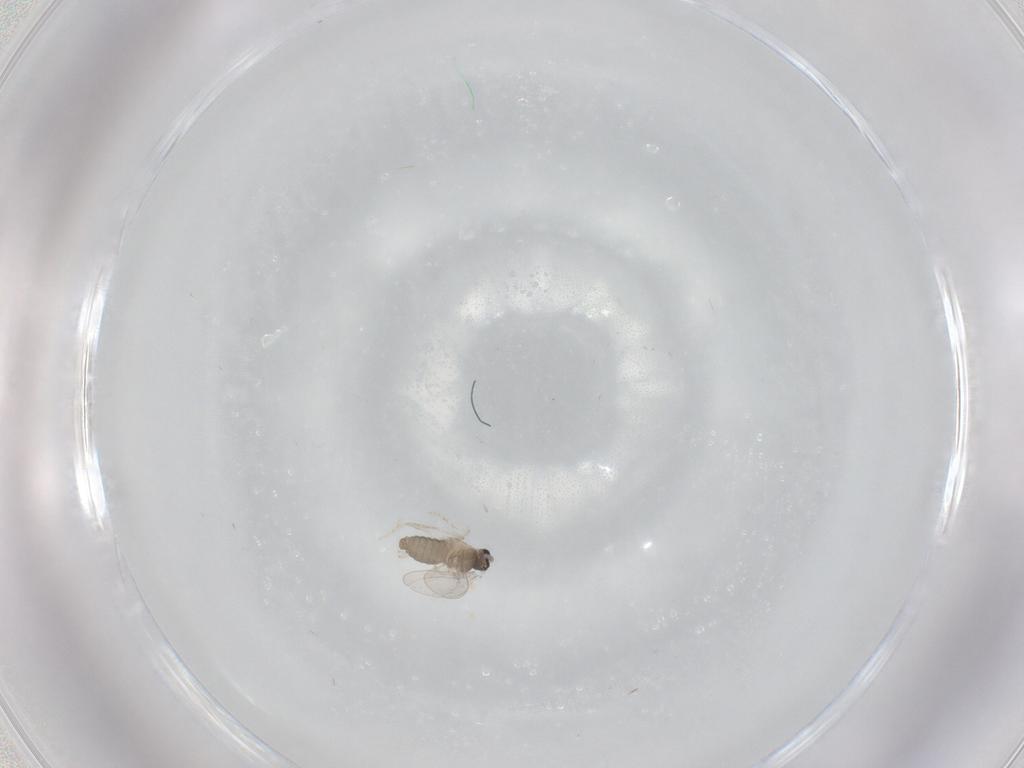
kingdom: Animalia
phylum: Arthropoda
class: Insecta
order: Diptera
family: Cecidomyiidae
